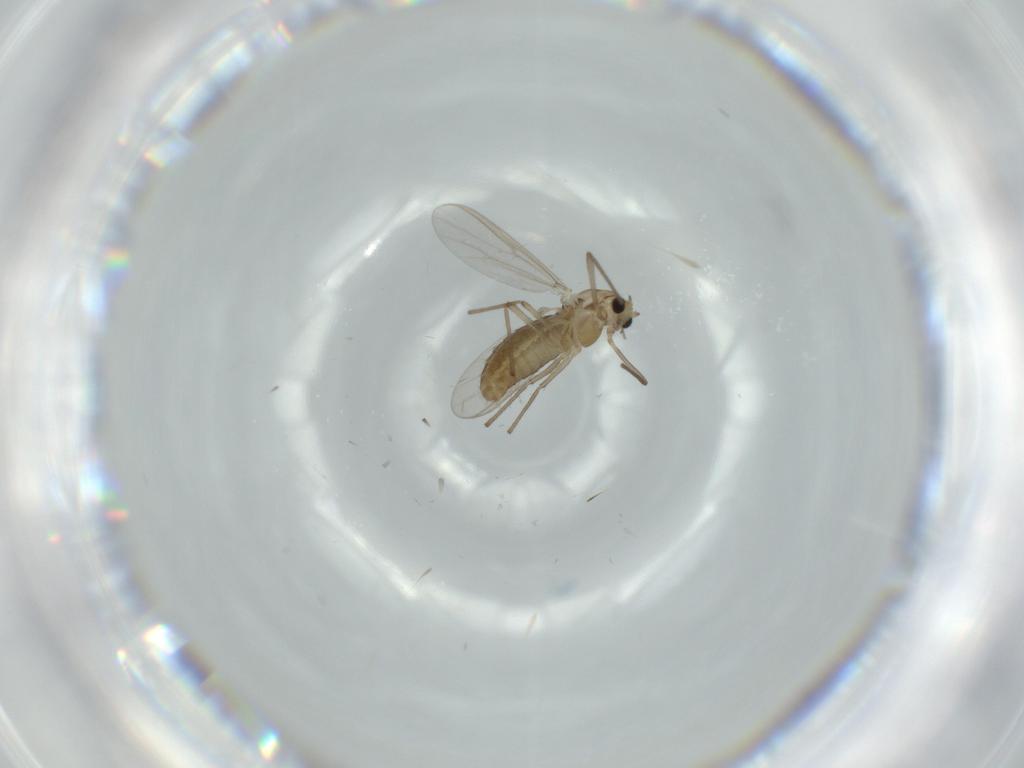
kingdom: Animalia
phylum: Arthropoda
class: Insecta
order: Diptera
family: Chironomidae
